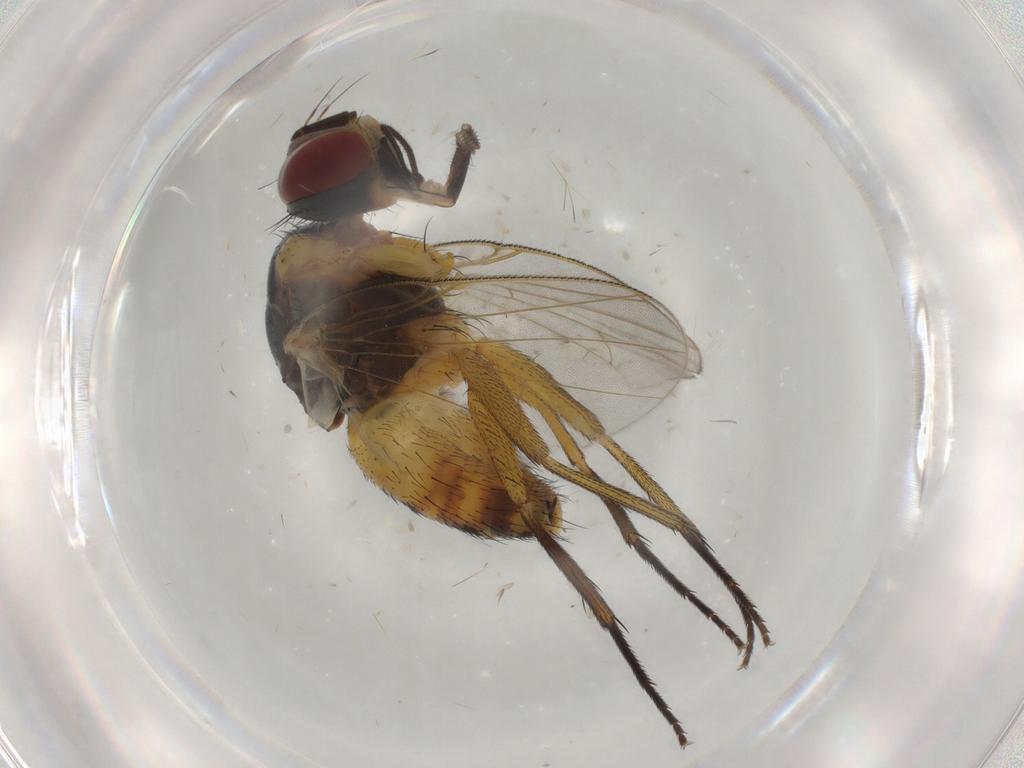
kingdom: Animalia
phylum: Arthropoda
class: Insecta
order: Diptera
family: Muscidae
